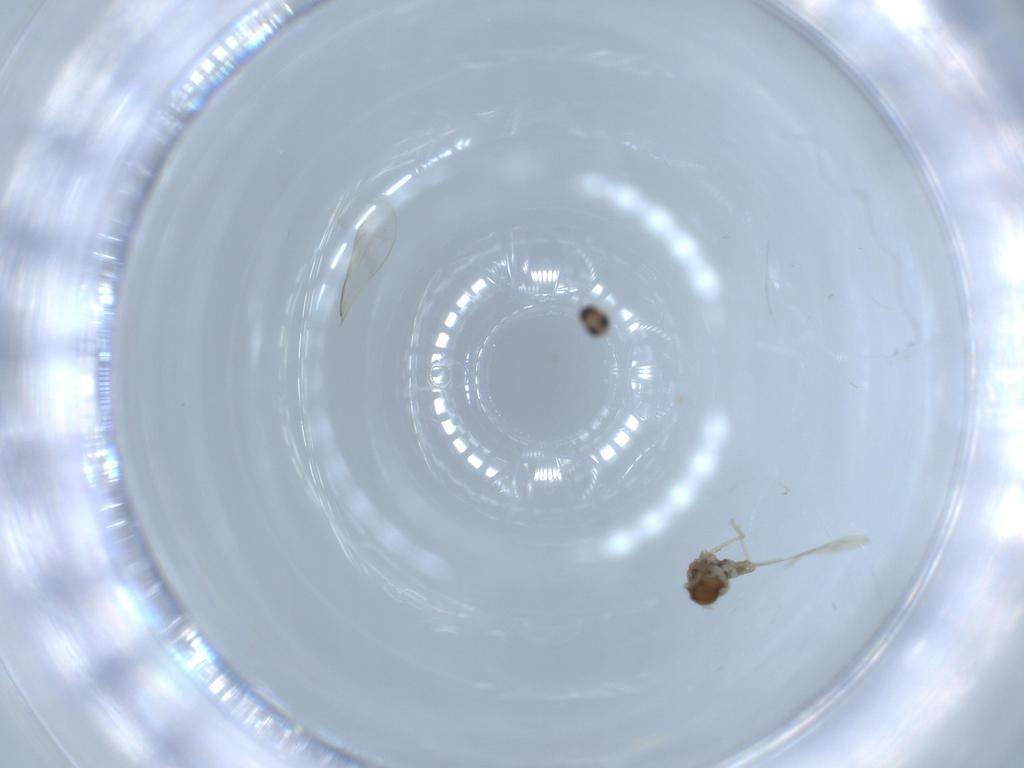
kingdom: Animalia
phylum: Arthropoda
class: Insecta
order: Diptera
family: Cecidomyiidae
